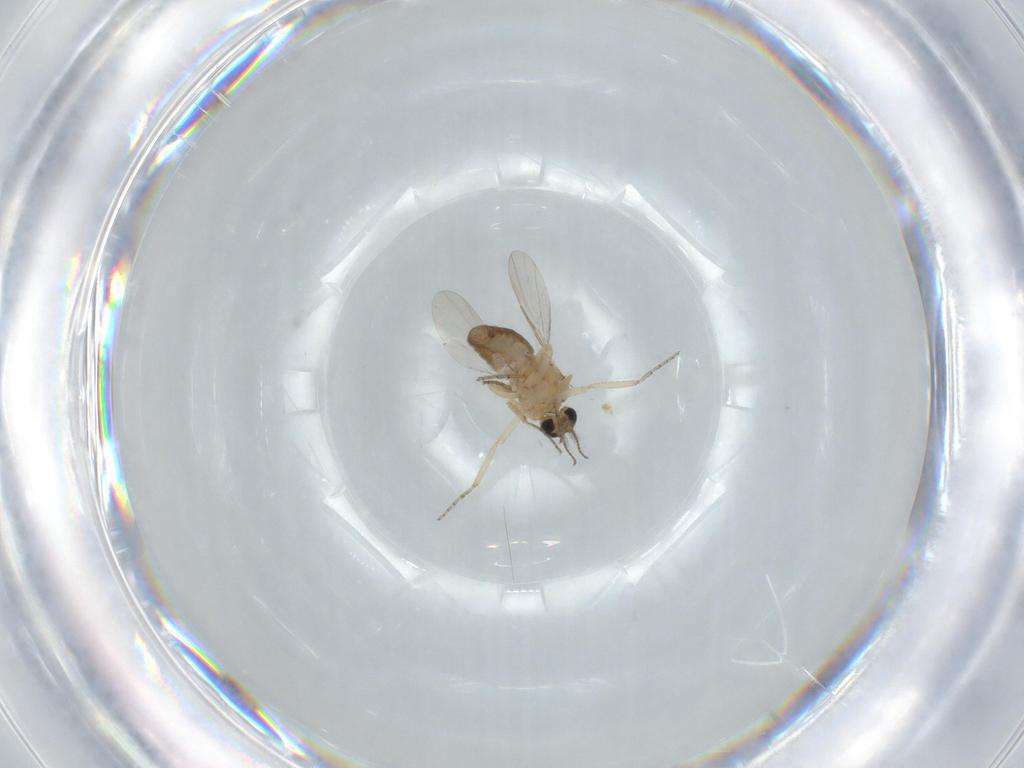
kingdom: Animalia
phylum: Arthropoda
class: Insecta
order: Diptera
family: Ceratopogonidae
